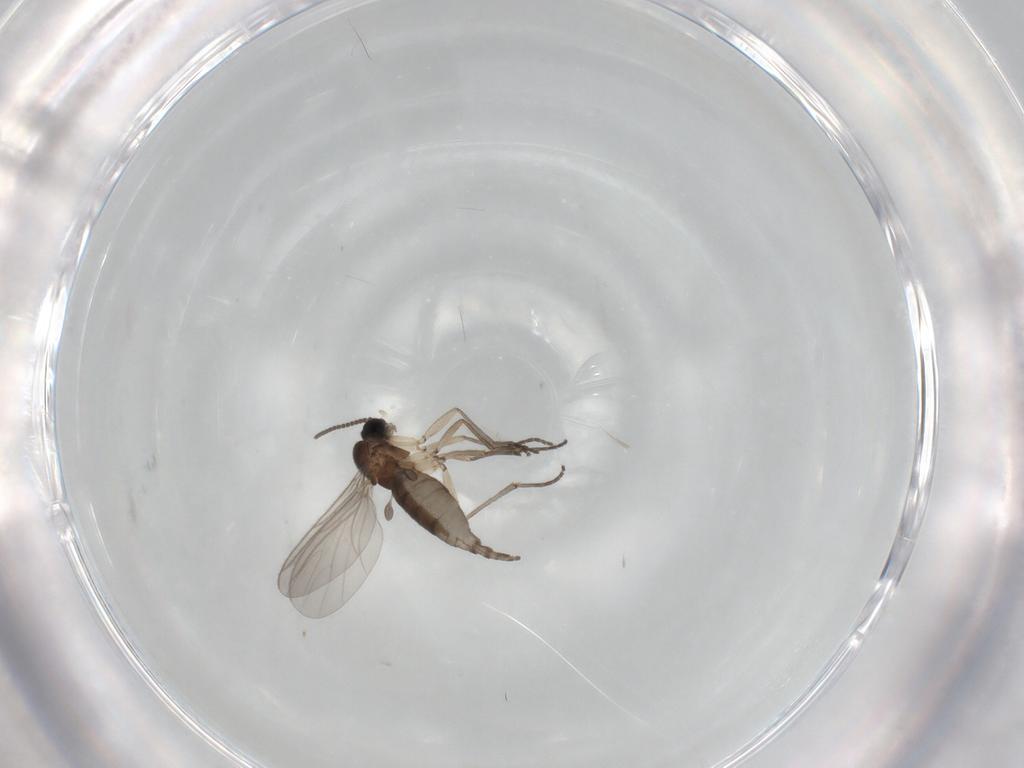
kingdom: Animalia
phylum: Arthropoda
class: Insecta
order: Diptera
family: Sciaridae
